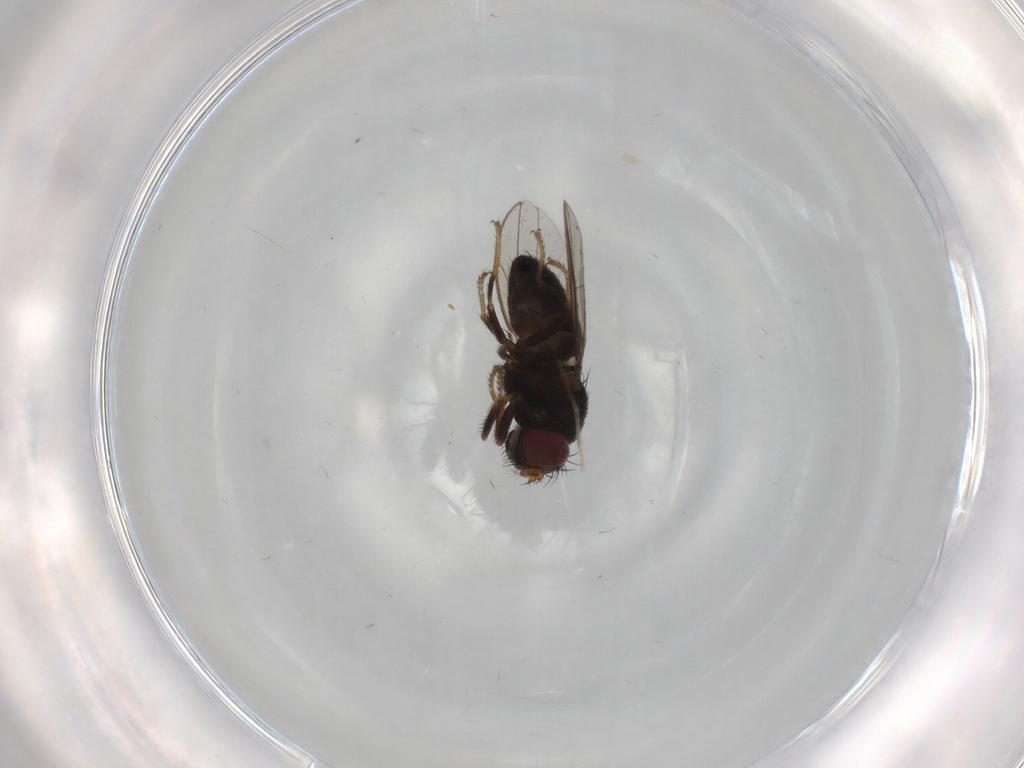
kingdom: Animalia
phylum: Arthropoda
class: Insecta
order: Diptera
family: Chironomidae
